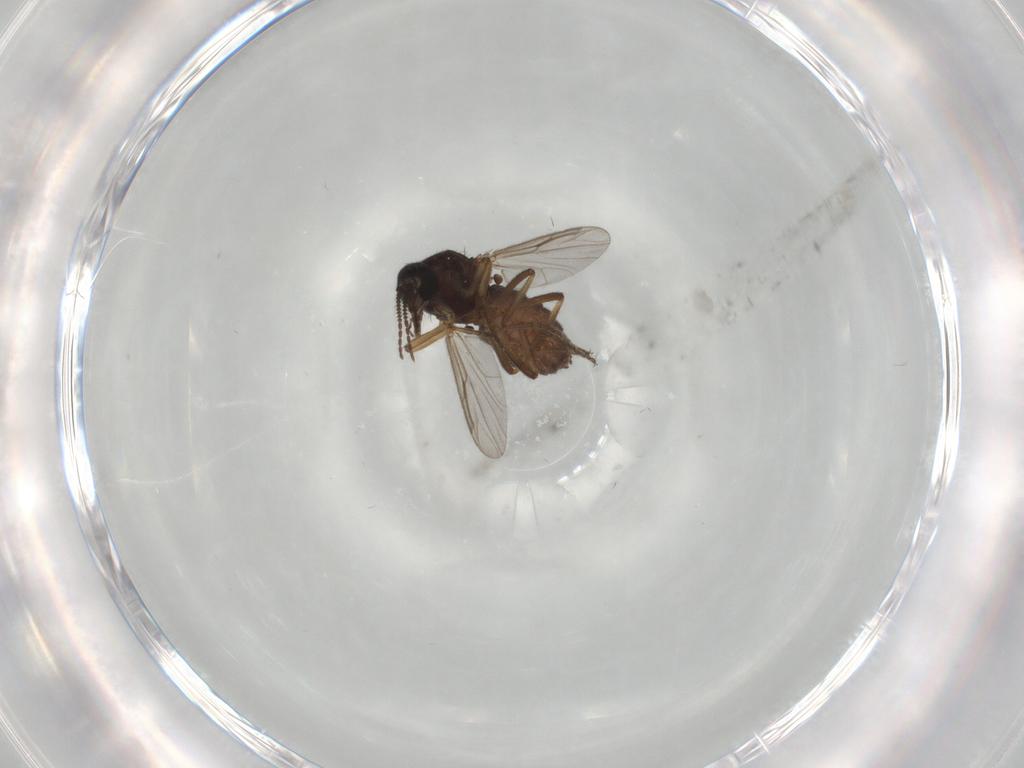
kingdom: Animalia
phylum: Arthropoda
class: Insecta
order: Diptera
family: Ceratopogonidae
